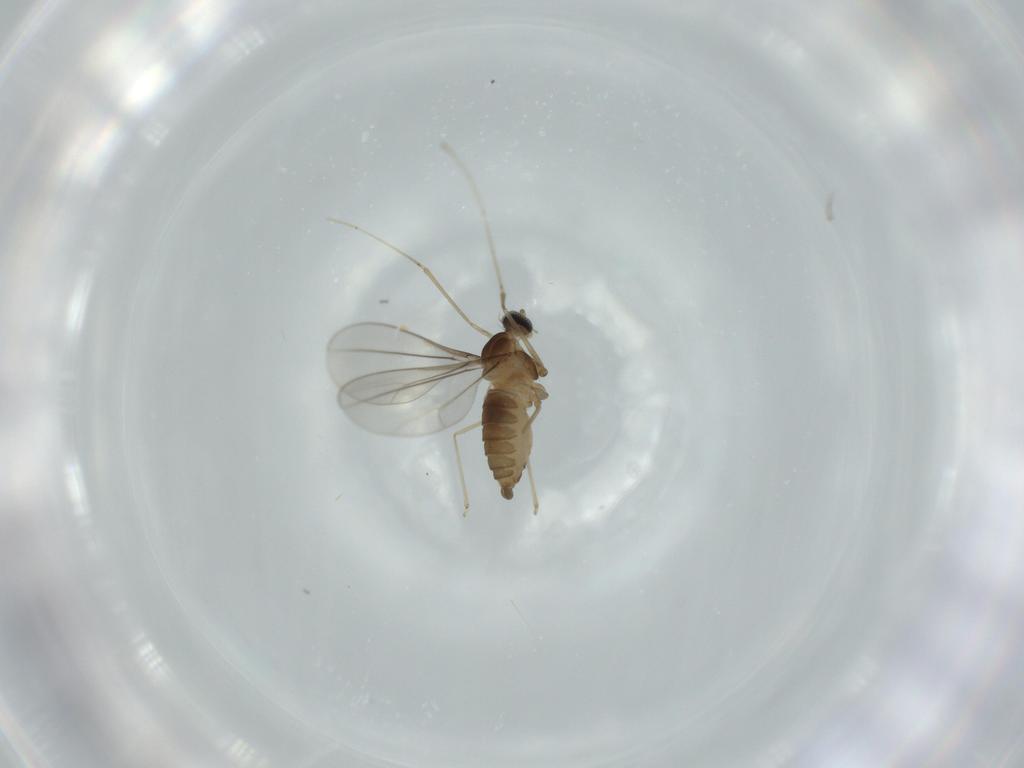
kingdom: Animalia
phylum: Arthropoda
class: Insecta
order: Diptera
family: Cecidomyiidae
